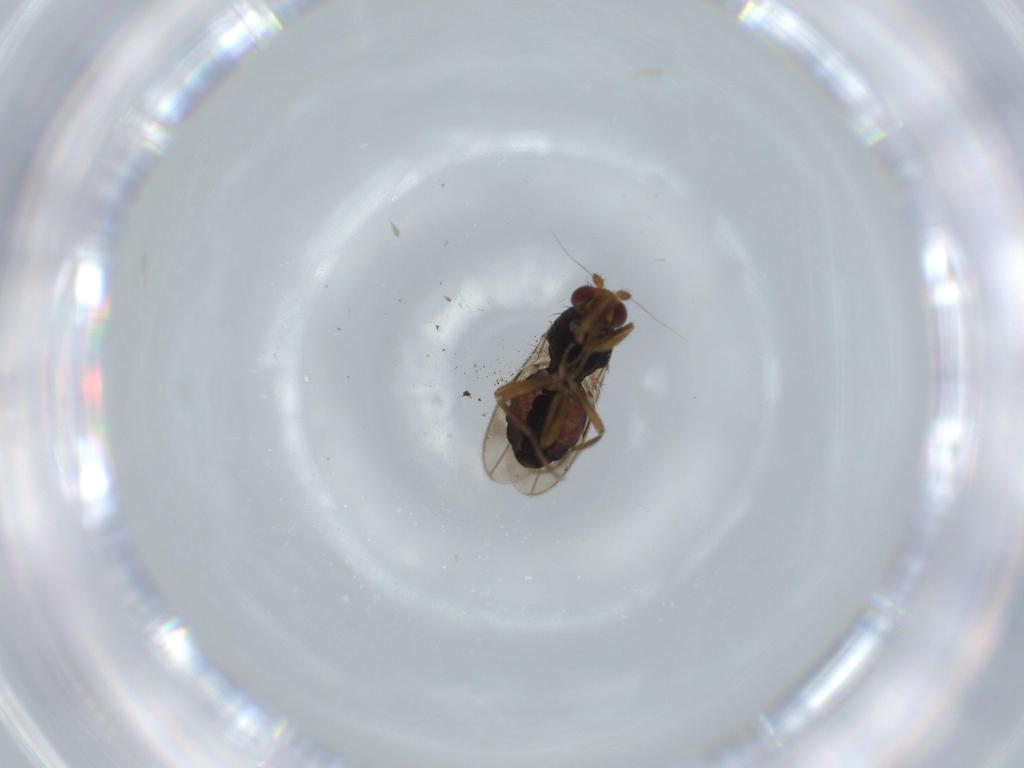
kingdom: Animalia
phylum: Arthropoda
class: Insecta
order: Diptera
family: Sphaeroceridae
